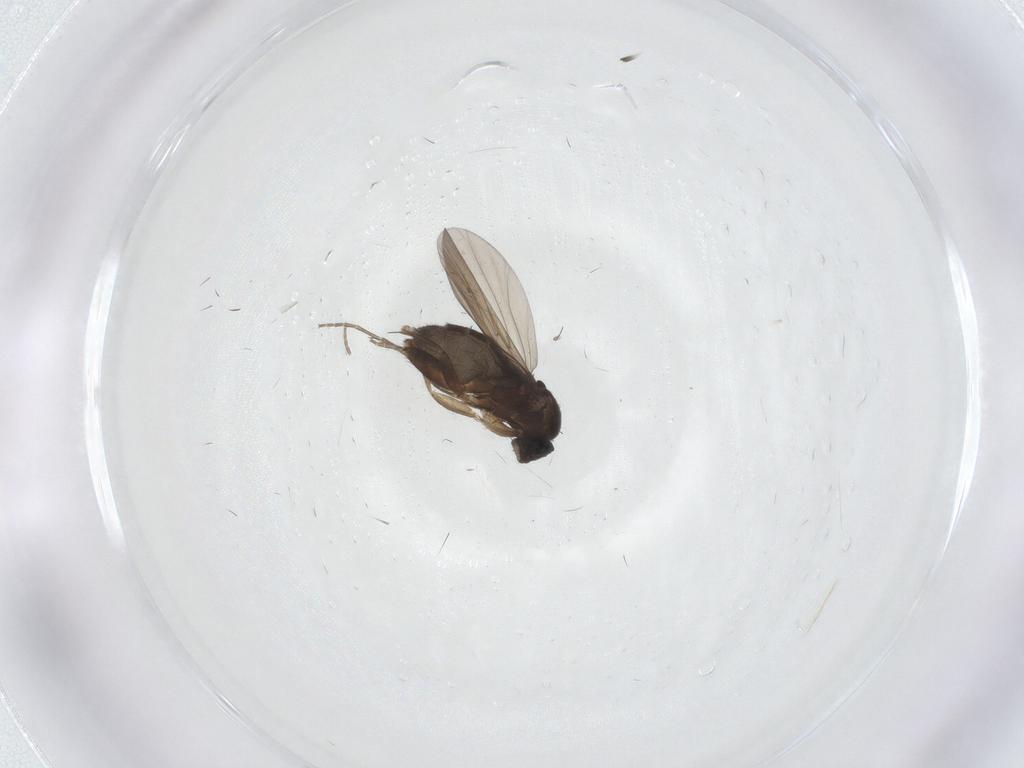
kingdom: Animalia
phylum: Arthropoda
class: Insecta
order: Diptera
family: Phoridae
